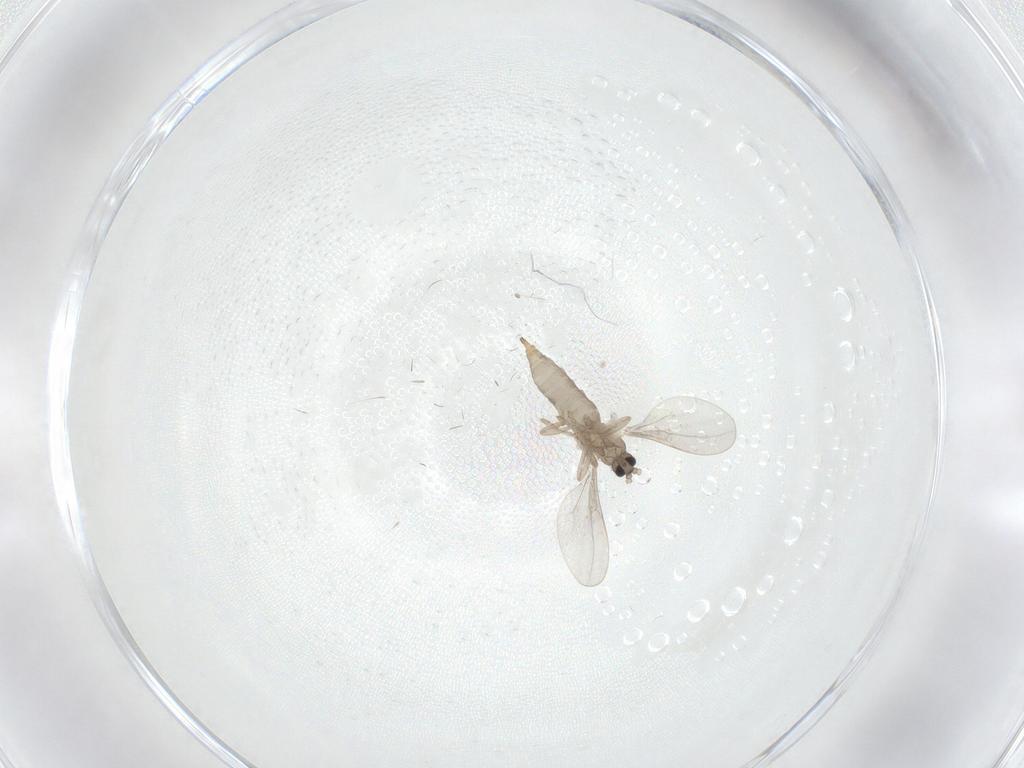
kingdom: Animalia
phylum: Arthropoda
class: Insecta
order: Diptera
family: Cecidomyiidae
